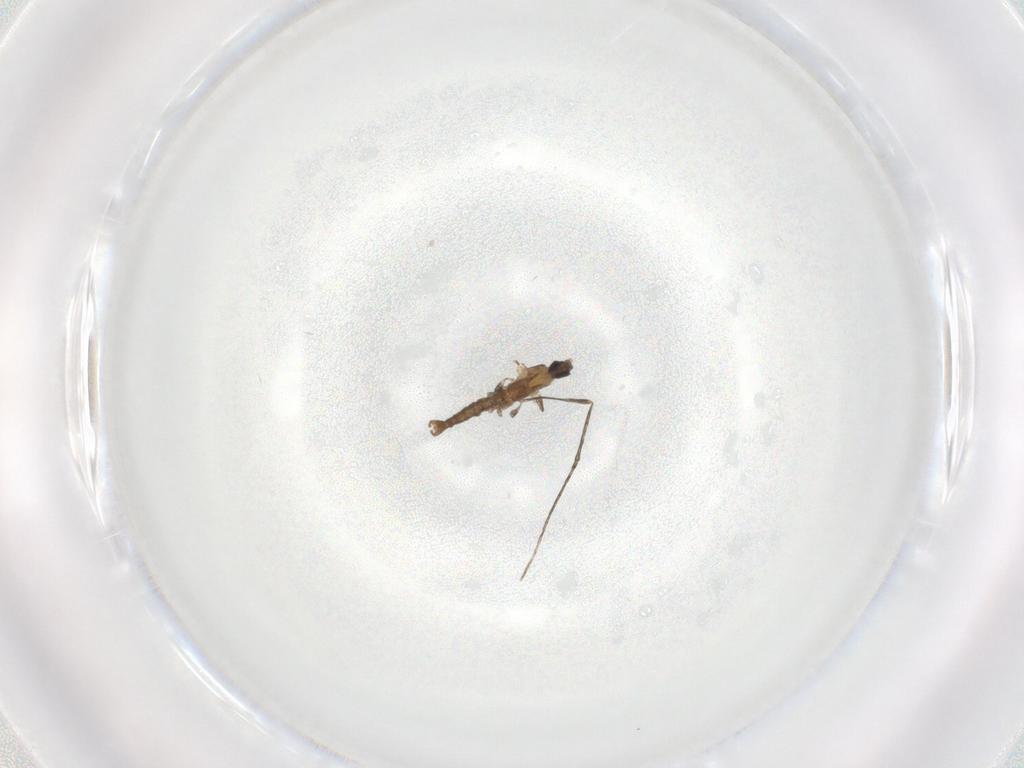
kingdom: Animalia
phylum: Arthropoda
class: Insecta
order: Diptera
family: Cecidomyiidae
